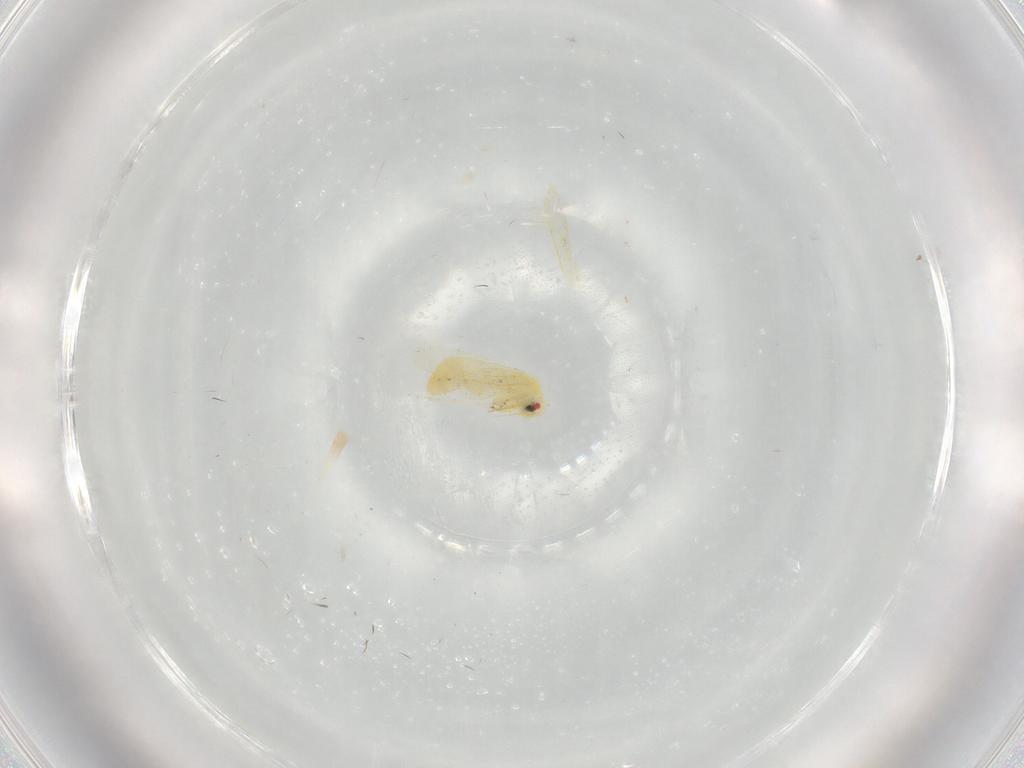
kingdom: Animalia
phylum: Arthropoda
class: Insecta
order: Hemiptera
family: Aleyrodidae
